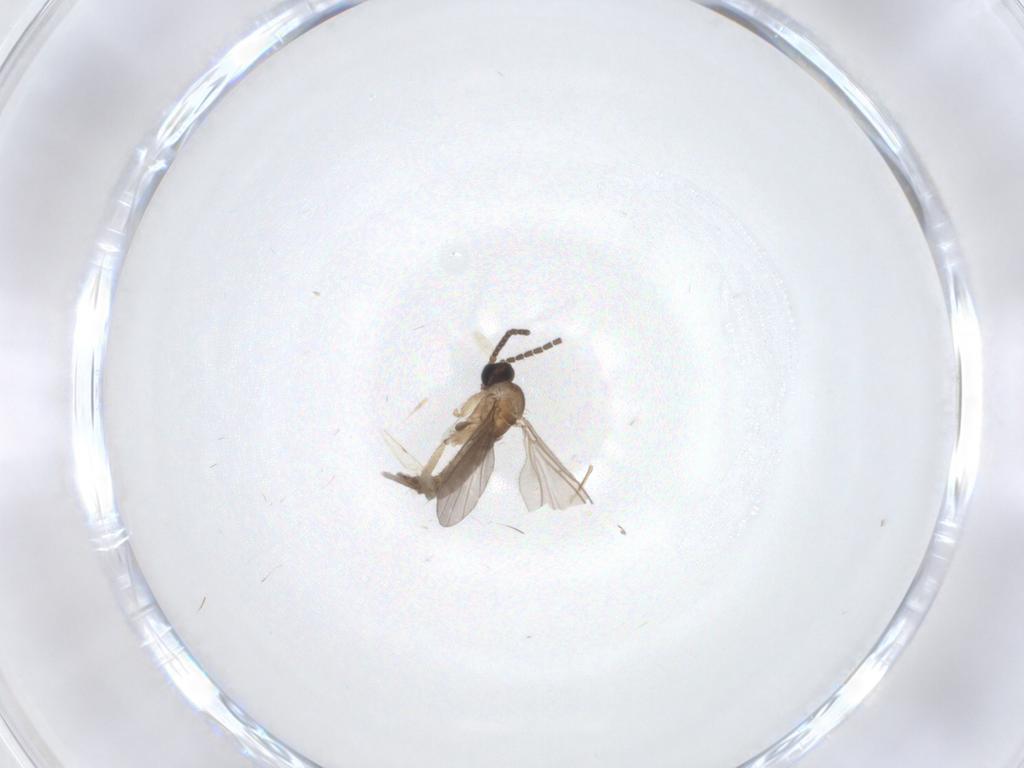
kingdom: Animalia
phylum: Arthropoda
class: Insecta
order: Diptera
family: Sciaridae
